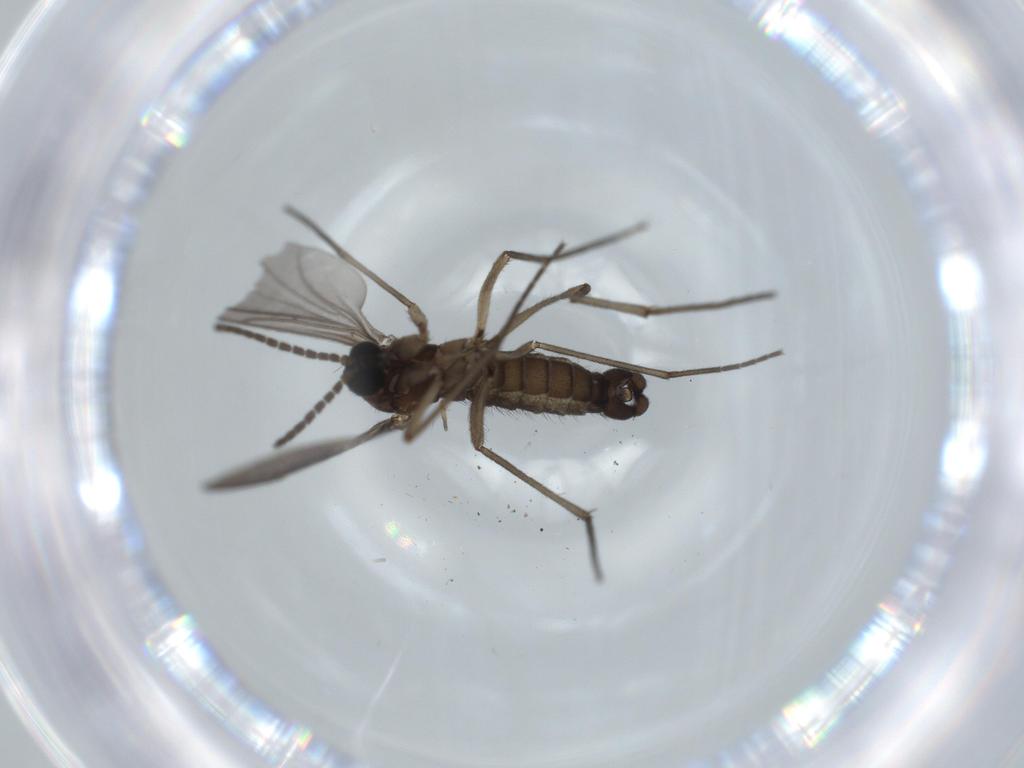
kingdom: Animalia
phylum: Arthropoda
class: Insecta
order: Diptera
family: Sciaridae
